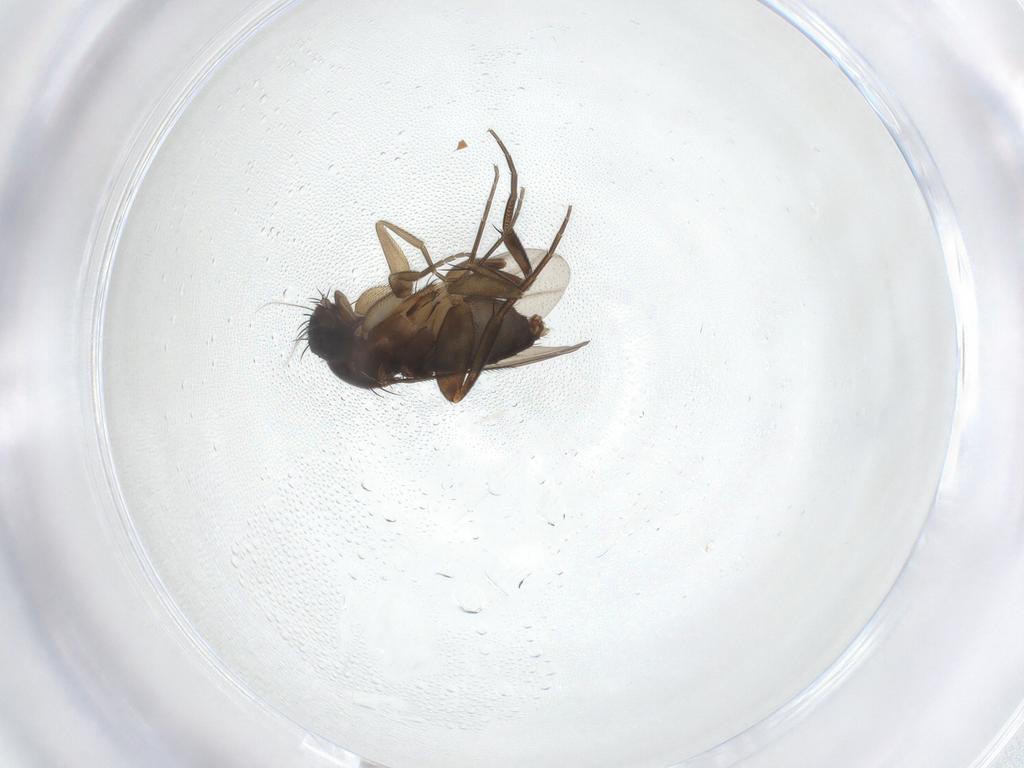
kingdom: Animalia
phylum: Arthropoda
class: Insecta
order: Diptera
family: Phoridae
